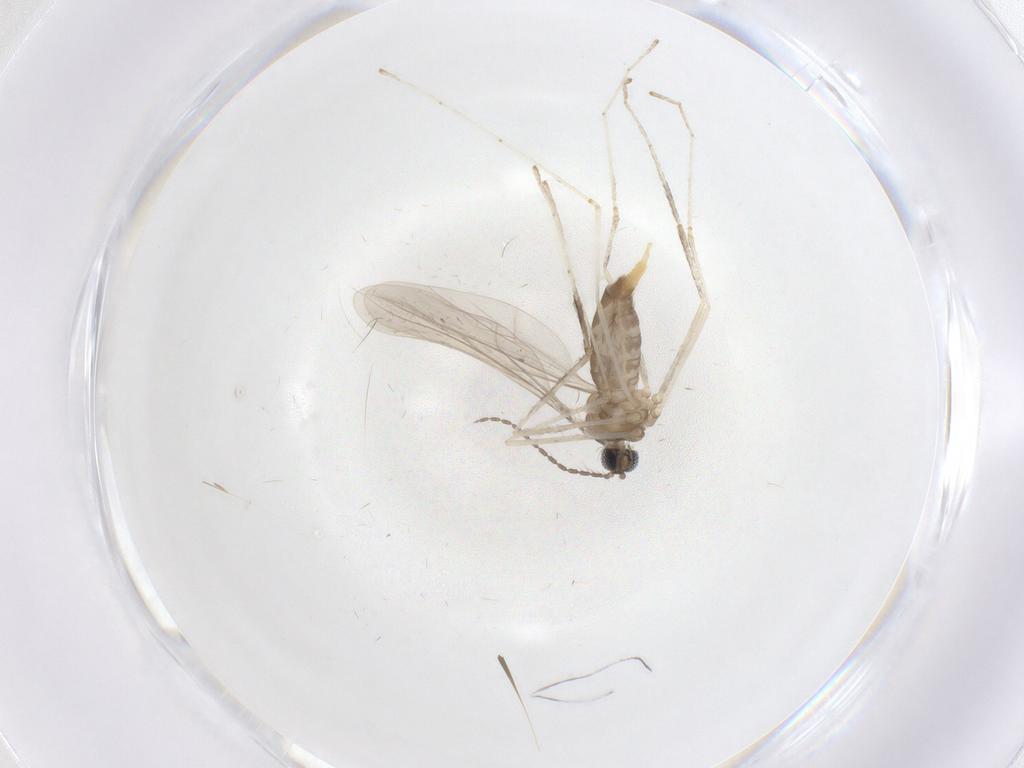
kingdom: Animalia
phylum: Arthropoda
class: Insecta
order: Diptera
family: Cecidomyiidae
